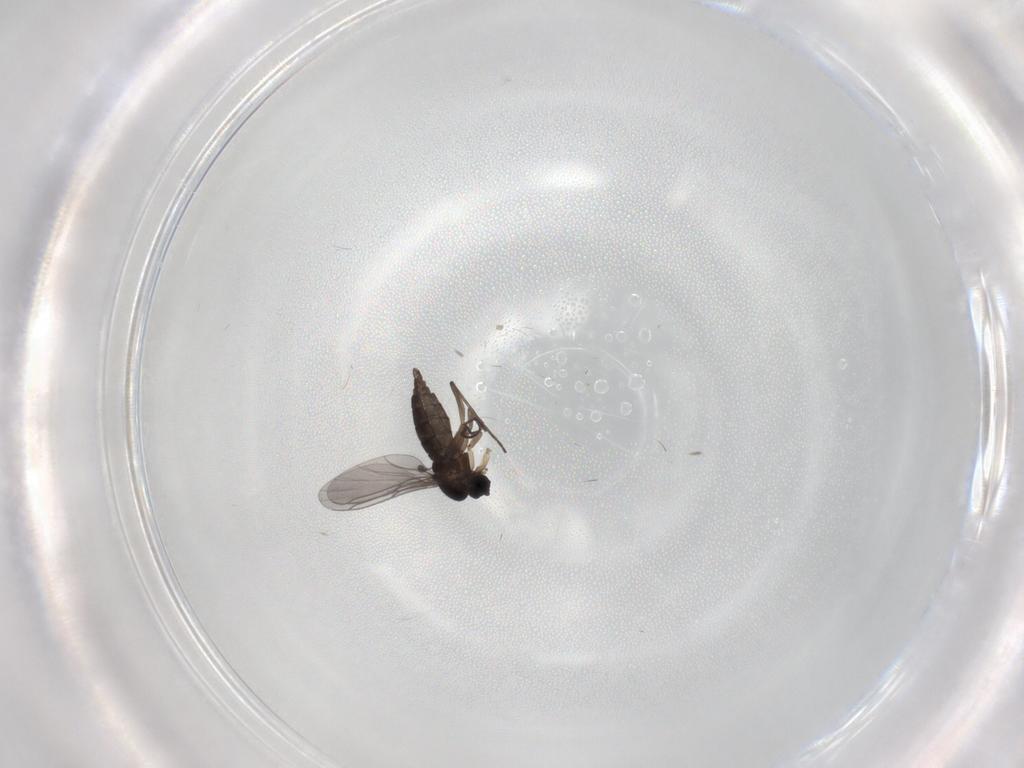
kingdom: Animalia
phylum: Arthropoda
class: Insecta
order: Diptera
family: Sciaridae
